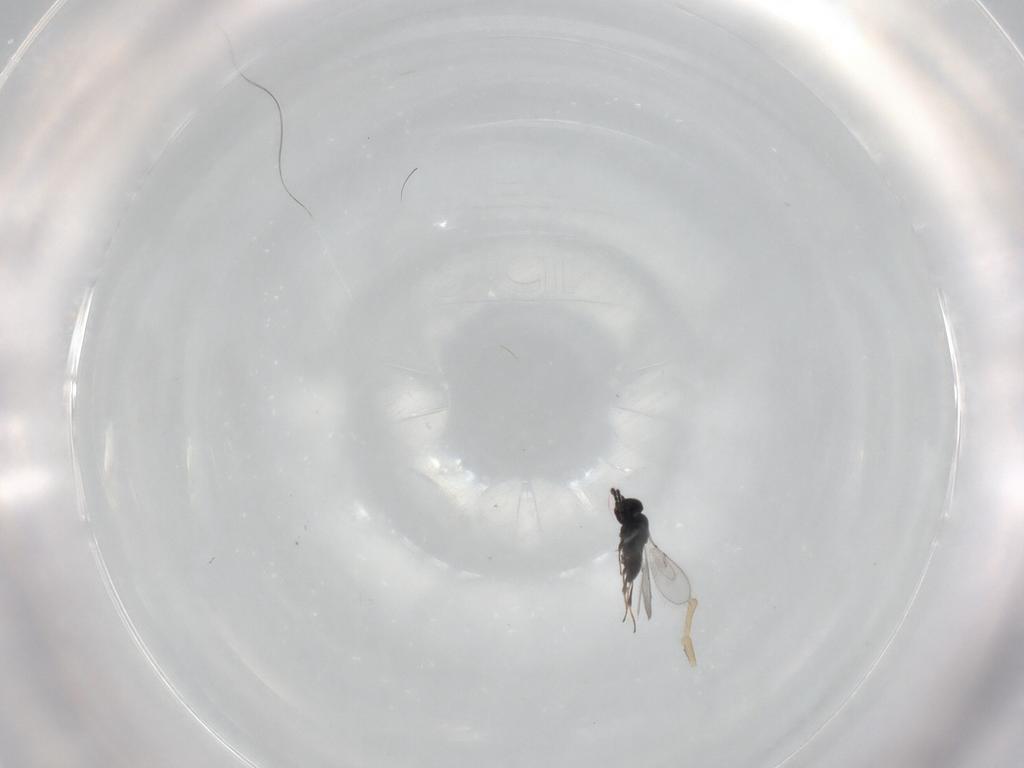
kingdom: Animalia
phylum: Arthropoda
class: Insecta
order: Hymenoptera
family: Scelionidae
